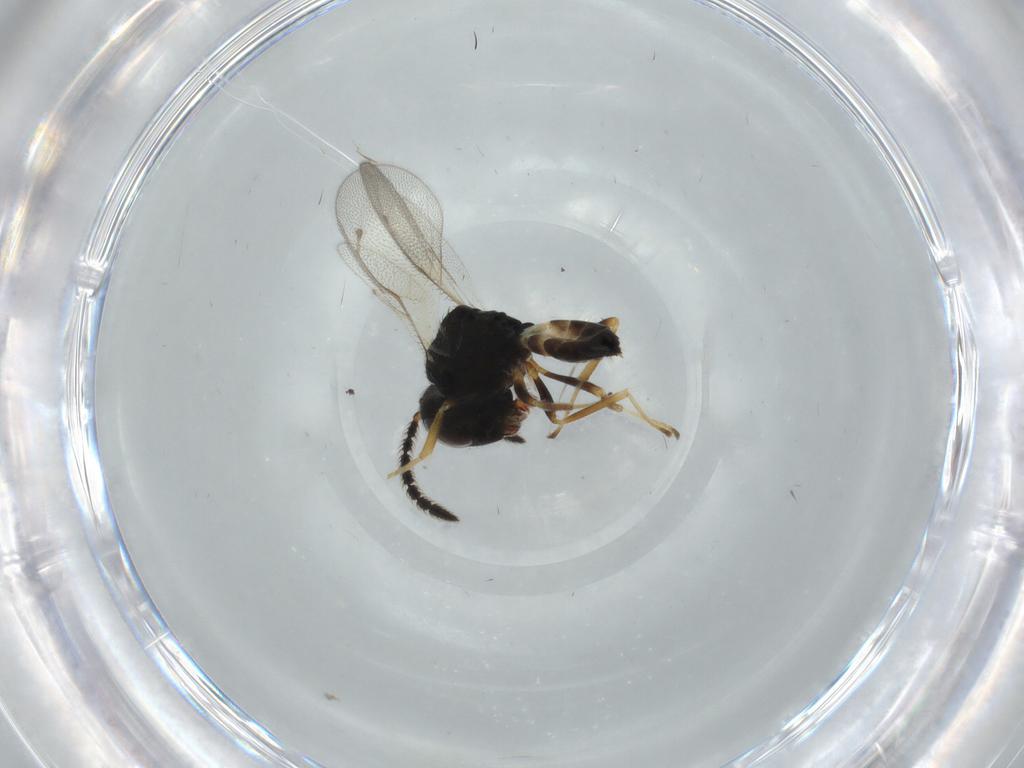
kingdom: Animalia
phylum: Arthropoda
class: Insecta
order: Hymenoptera
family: Pteromalidae
